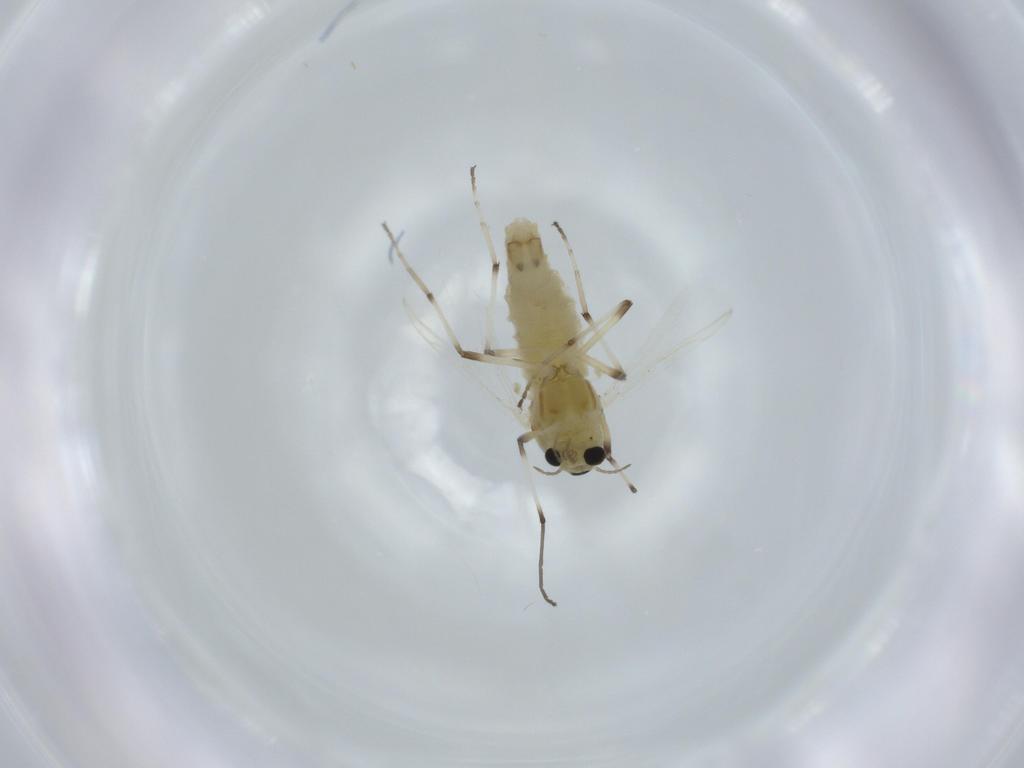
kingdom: Animalia
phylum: Arthropoda
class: Insecta
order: Diptera
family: Chironomidae
